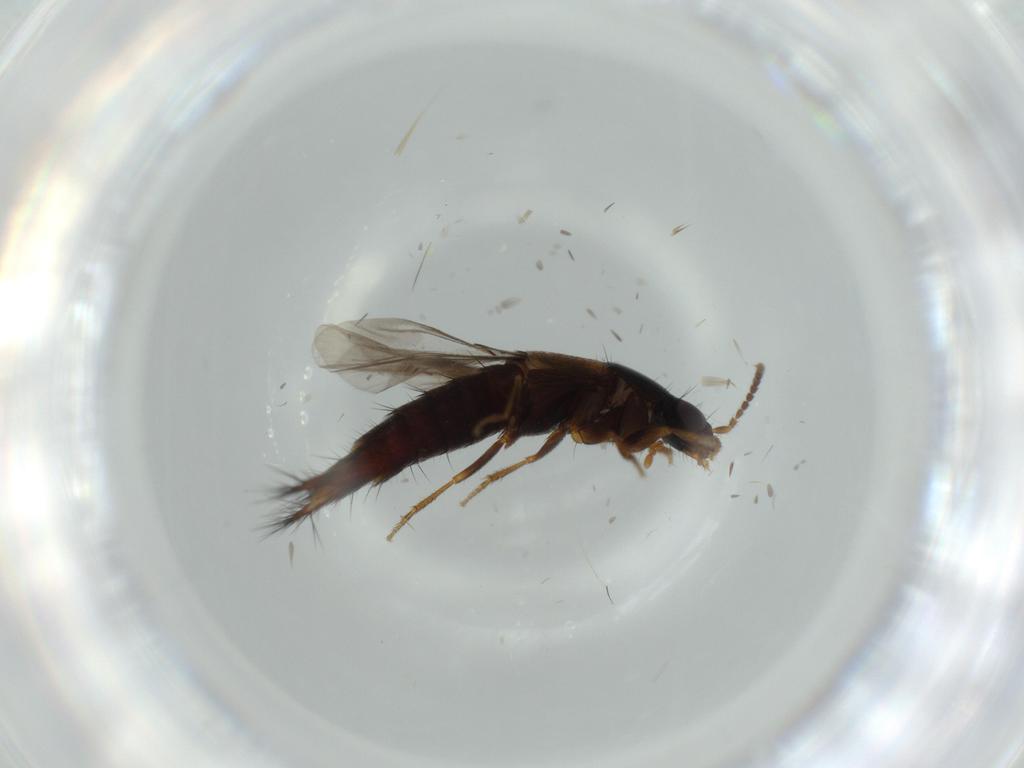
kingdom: Animalia
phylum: Arthropoda
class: Insecta
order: Coleoptera
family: Staphylinidae
